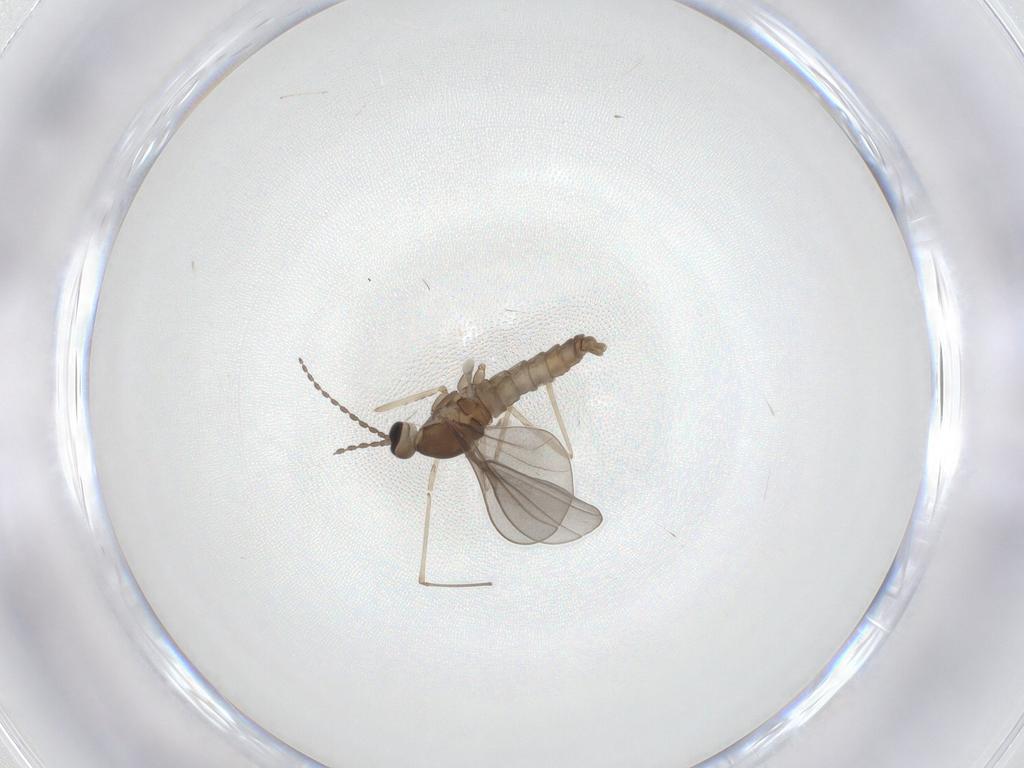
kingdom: Animalia
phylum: Arthropoda
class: Insecta
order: Diptera
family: Cecidomyiidae
